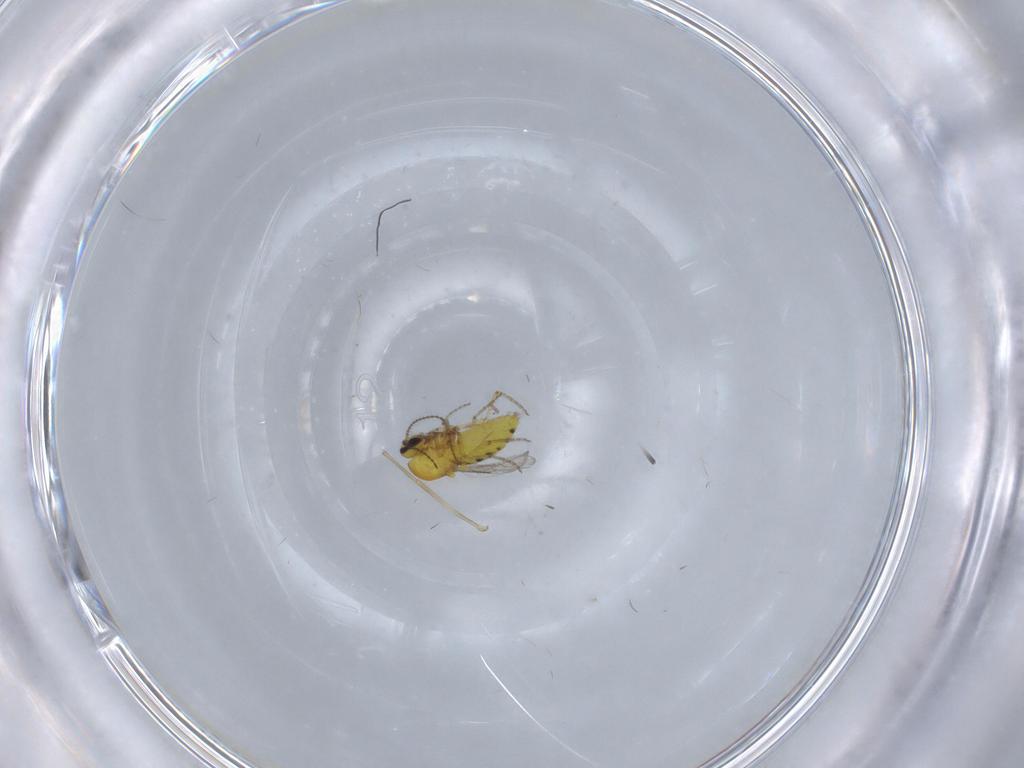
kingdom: Animalia
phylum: Arthropoda
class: Insecta
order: Diptera
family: Ceratopogonidae
